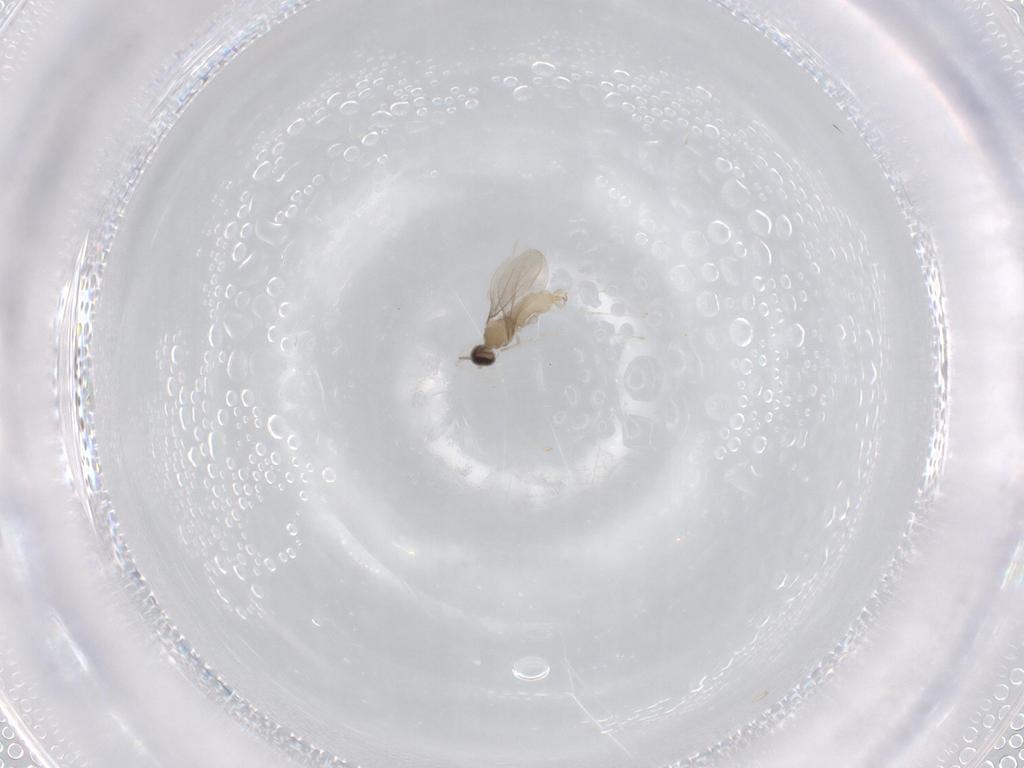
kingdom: Animalia
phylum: Arthropoda
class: Insecta
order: Diptera
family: Cecidomyiidae
